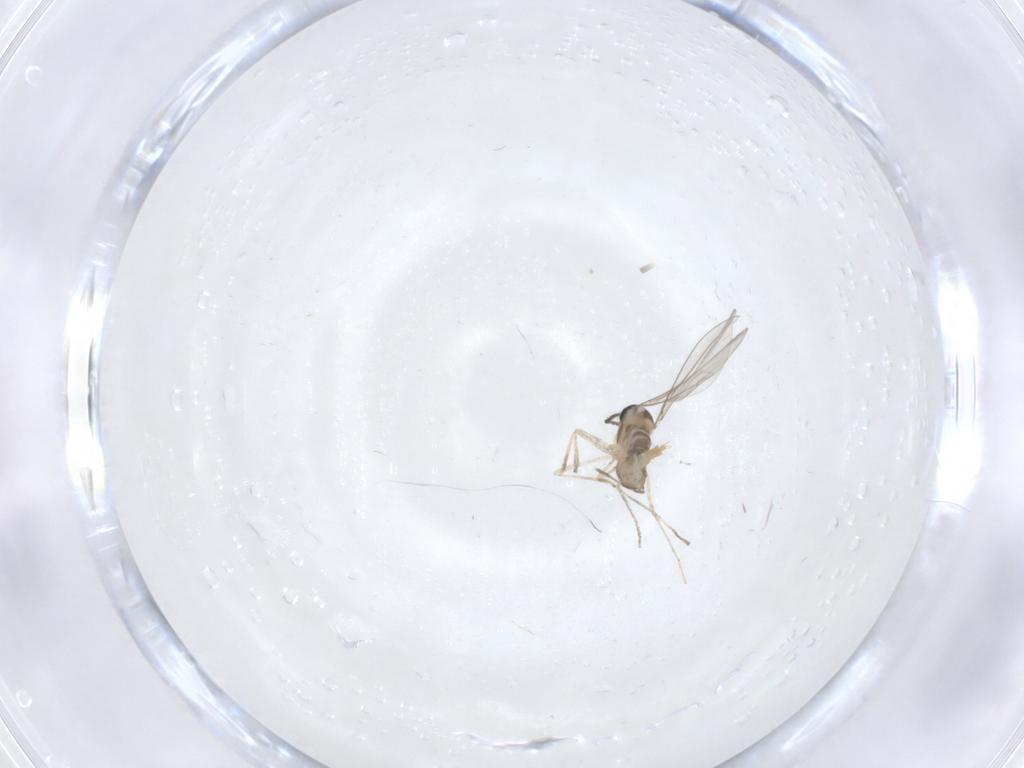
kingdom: Animalia
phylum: Arthropoda
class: Insecta
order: Diptera
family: Cecidomyiidae
